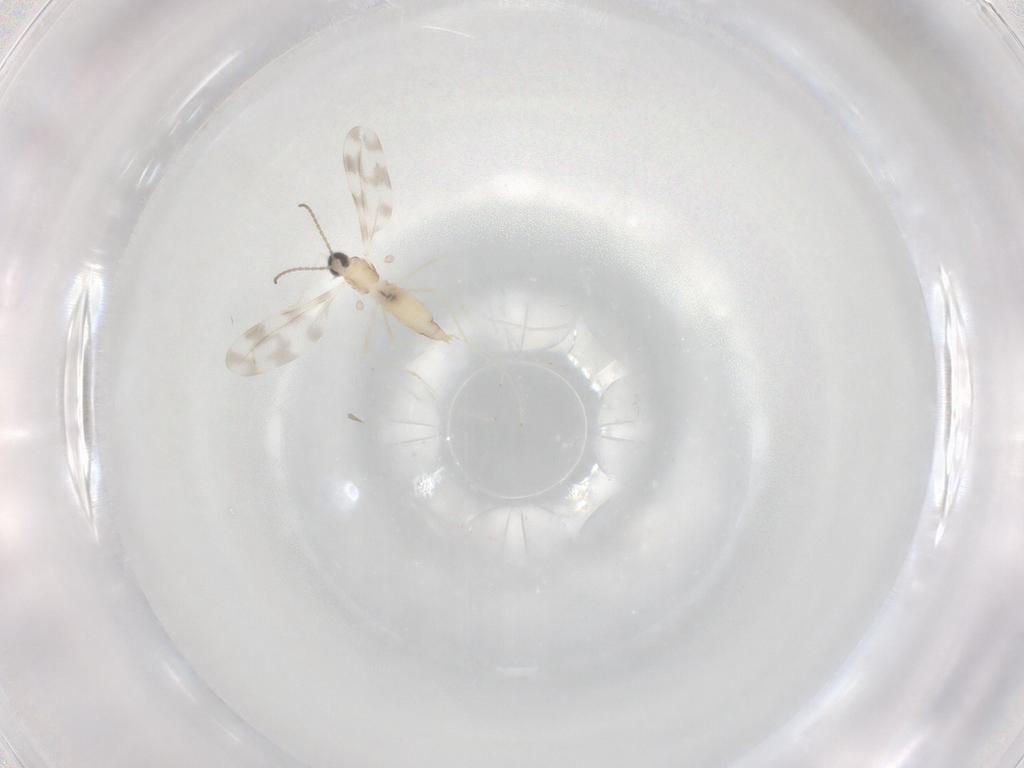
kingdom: Animalia
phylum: Arthropoda
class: Insecta
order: Diptera
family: Cecidomyiidae
